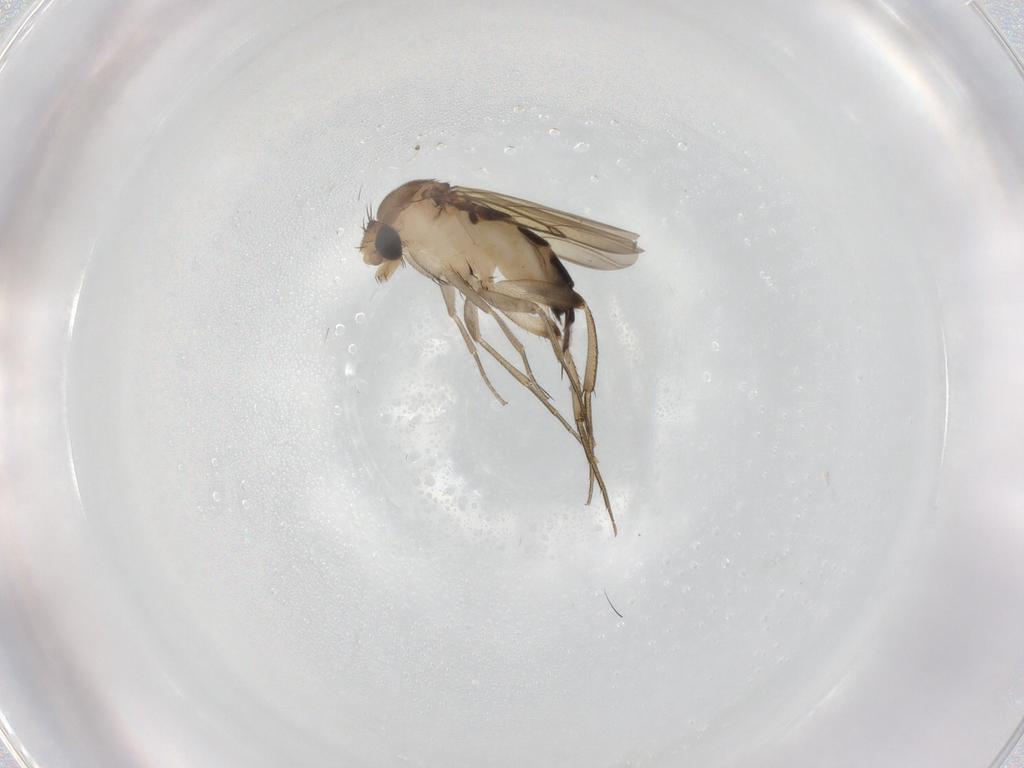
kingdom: Animalia
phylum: Arthropoda
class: Insecta
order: Diptera
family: Phoridae
